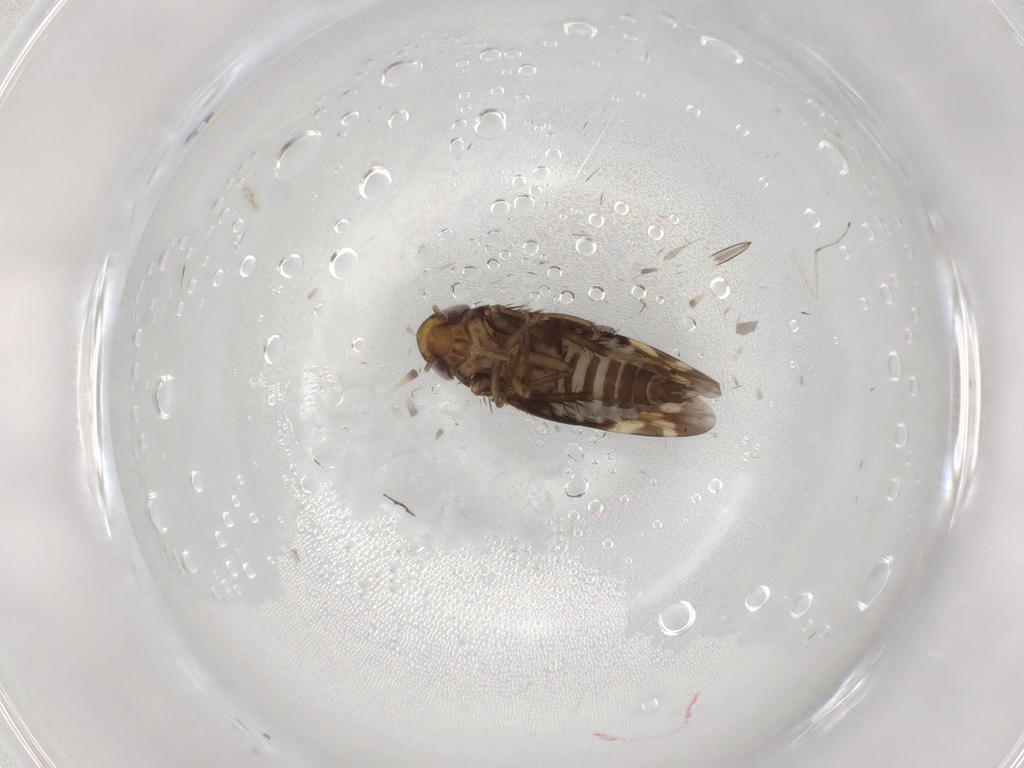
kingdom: Animalia
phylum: Arthropoda
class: Insecta
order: Hemiptera
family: Cicadellidae
